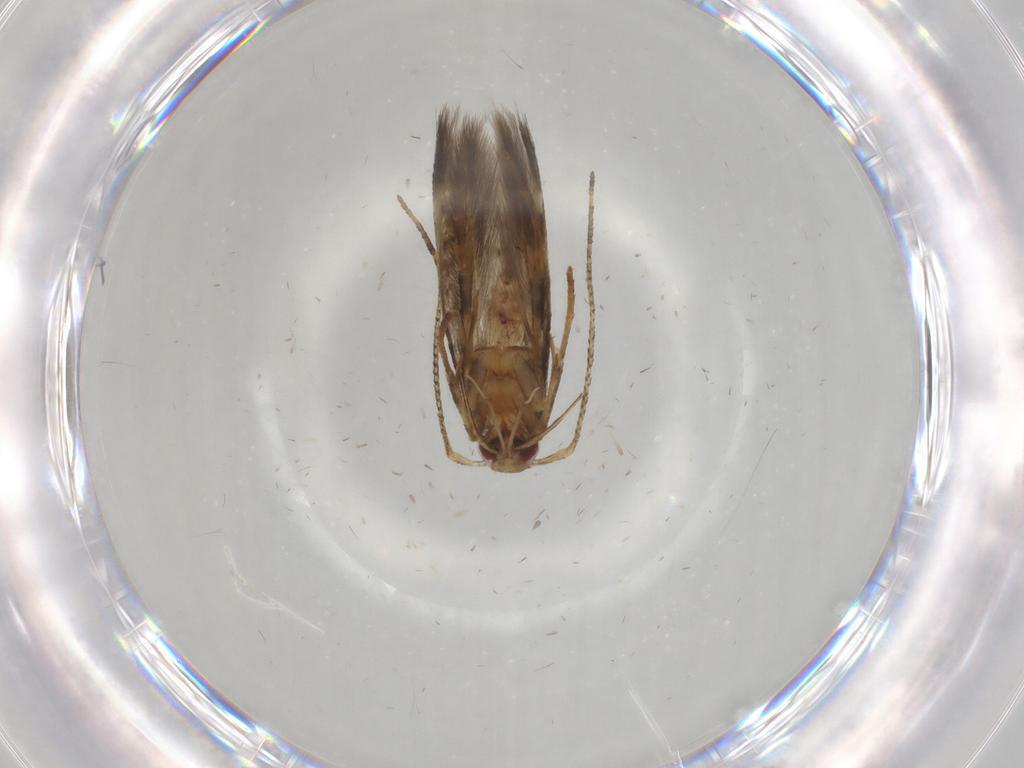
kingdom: Animalia
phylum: Arthropoda
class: Insecta
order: Lepidoptera
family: Cosmopterigidae
